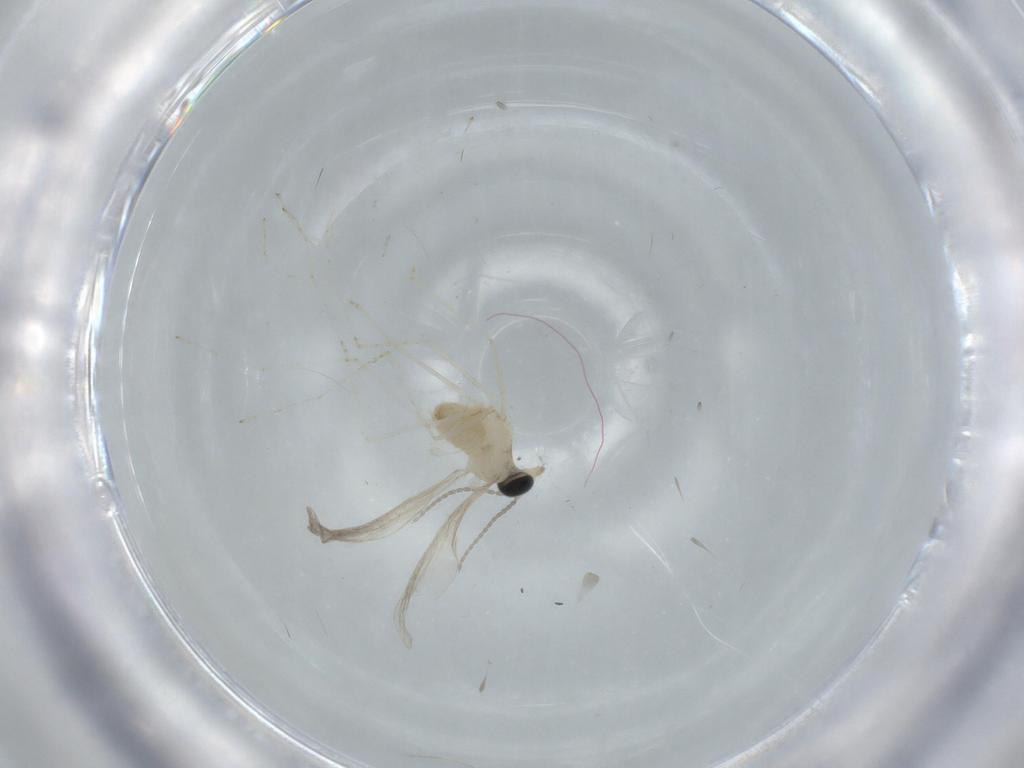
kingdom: Animalia
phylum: Arthropoda
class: Insecta
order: Diptera
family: Cecidomyiidae
